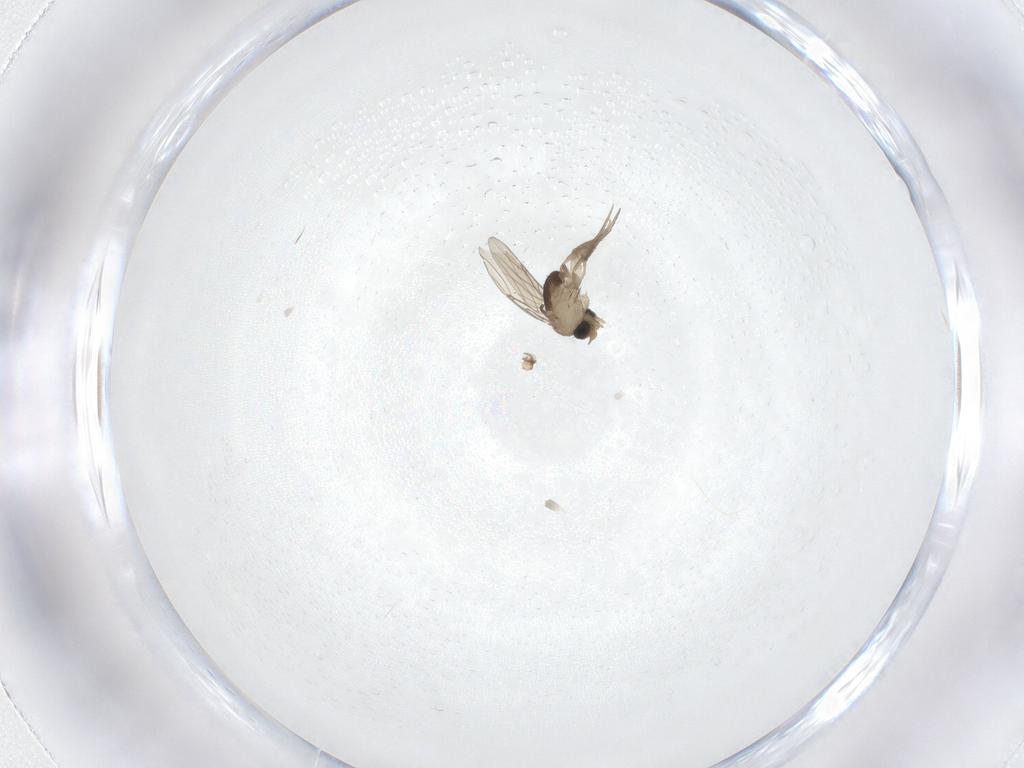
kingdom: Animalia
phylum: Arthropoda
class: Insecta
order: Diptera
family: Phoridae
